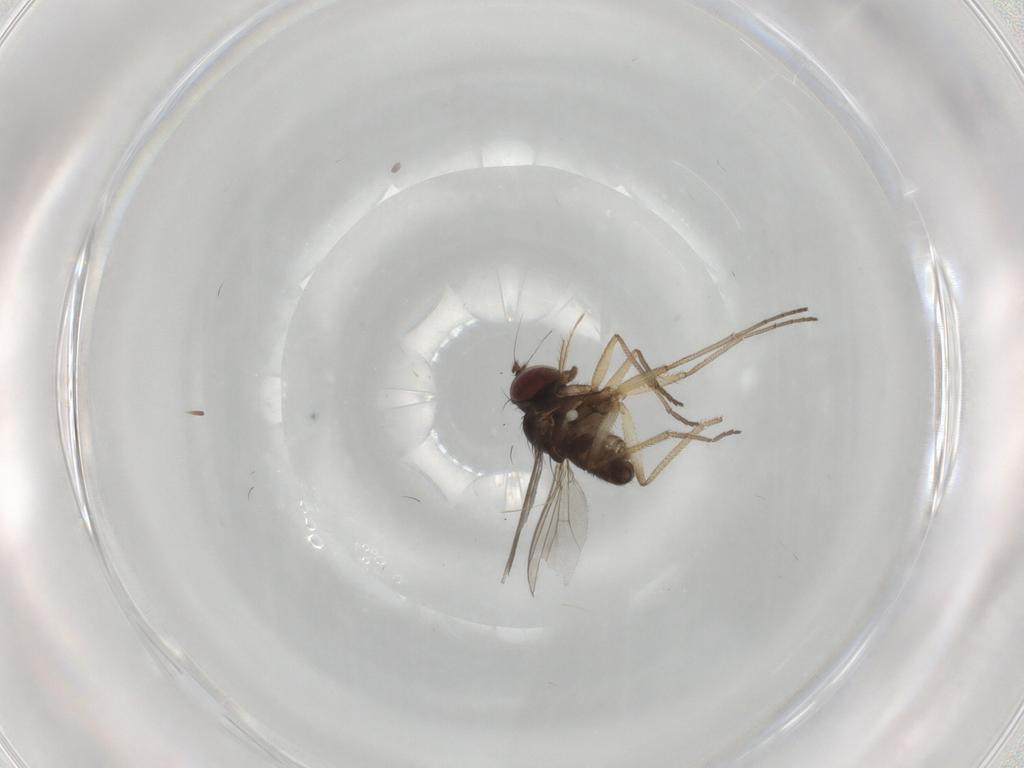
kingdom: Animalia
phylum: Arthropoda
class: Insecta
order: Diptera
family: Dolichopodidae
